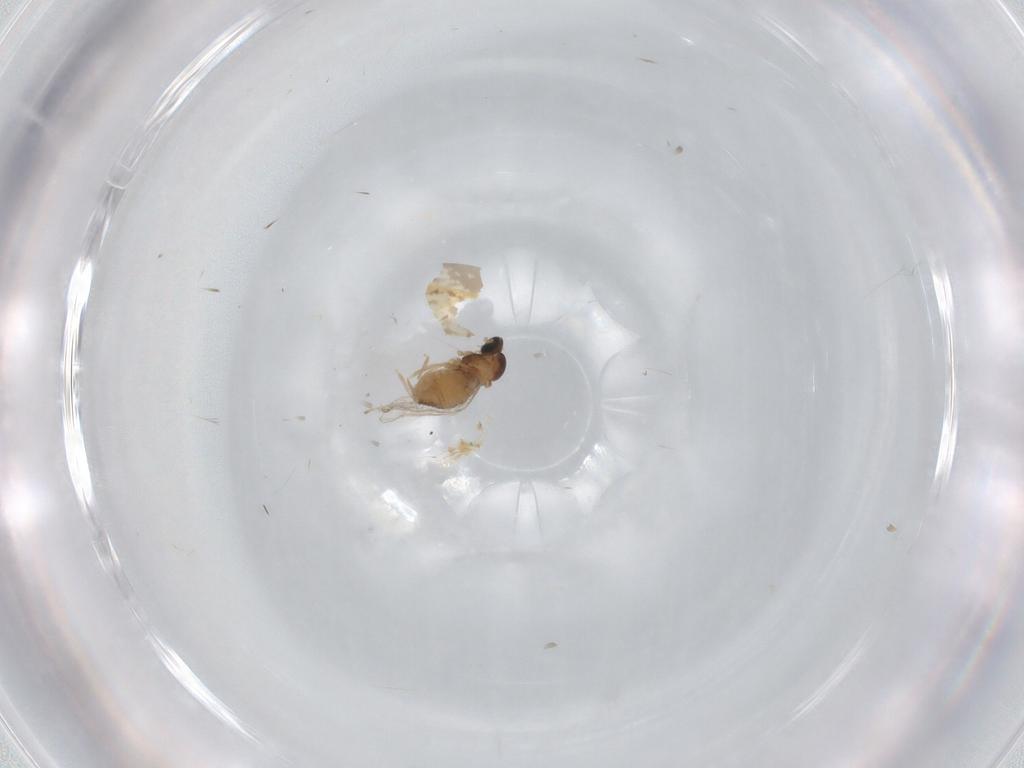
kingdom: Animalia
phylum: Arthropoda
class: Insecta
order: Diptera
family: Cecidomyiidae
